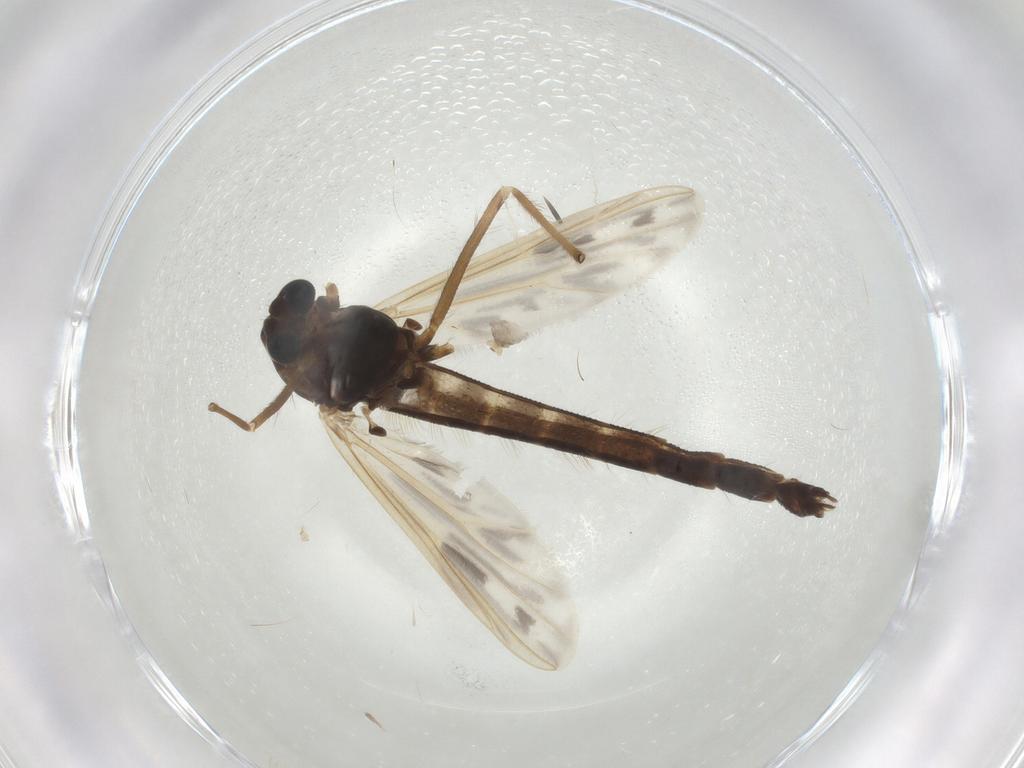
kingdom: Animalia
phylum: Arthropoda
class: Insecta
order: Diptera
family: Chironomidae
